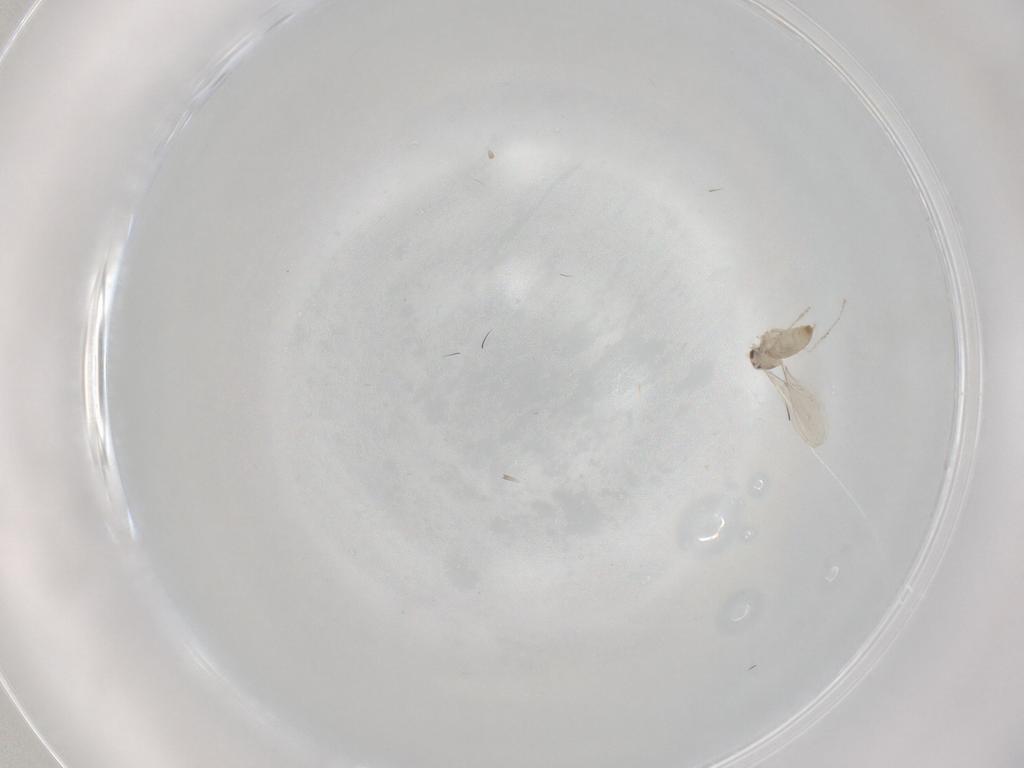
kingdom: Animalia
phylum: Arthropoda
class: Insecta
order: Diptera
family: Cecidomyiidae
